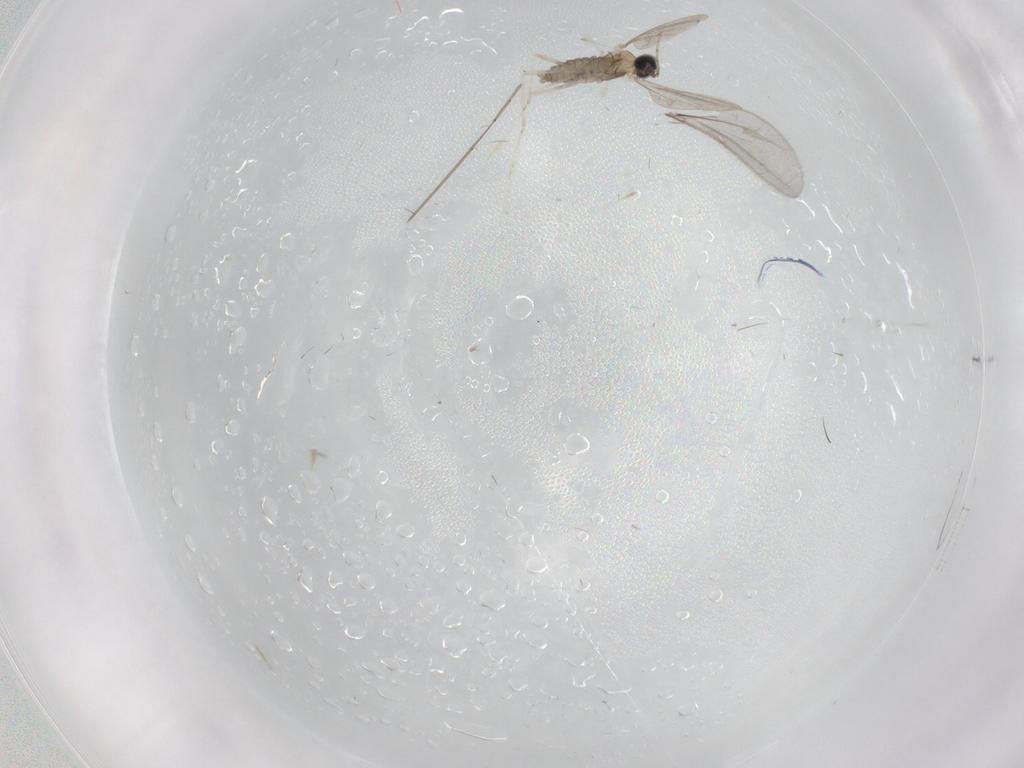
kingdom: Animalia
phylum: Arthropoda
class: Insecta
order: Diptera
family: Cecidomyiidae
